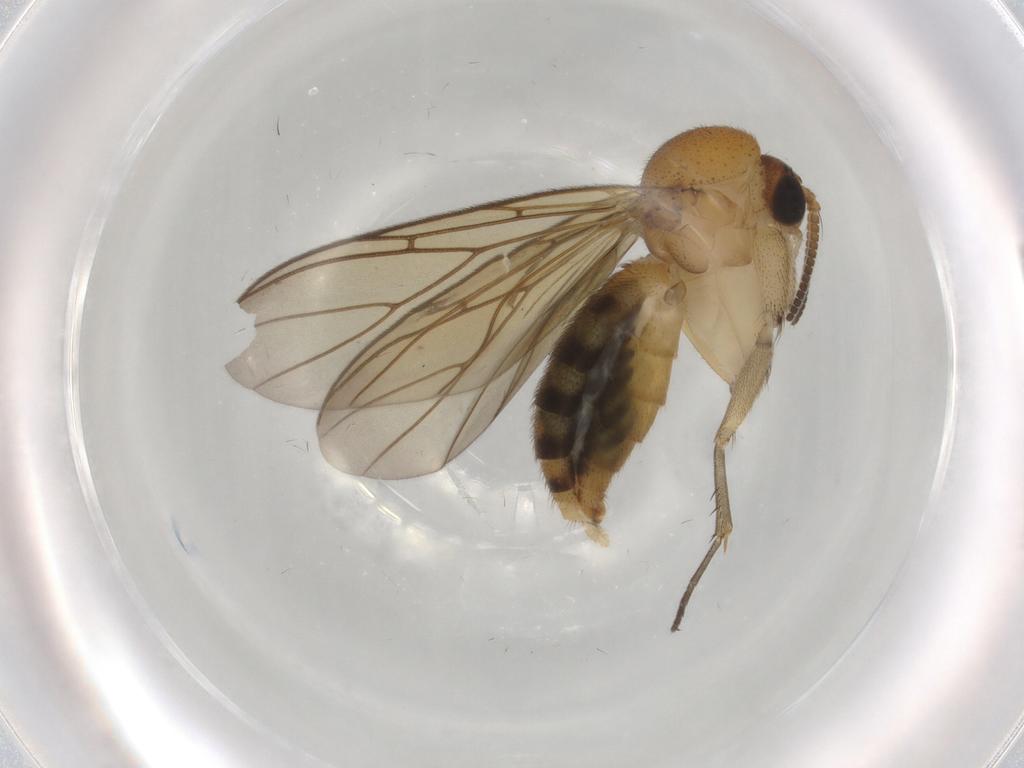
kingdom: Animalia
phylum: Arthropoda
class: Insecta
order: Diptera
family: Mycetophilidae
